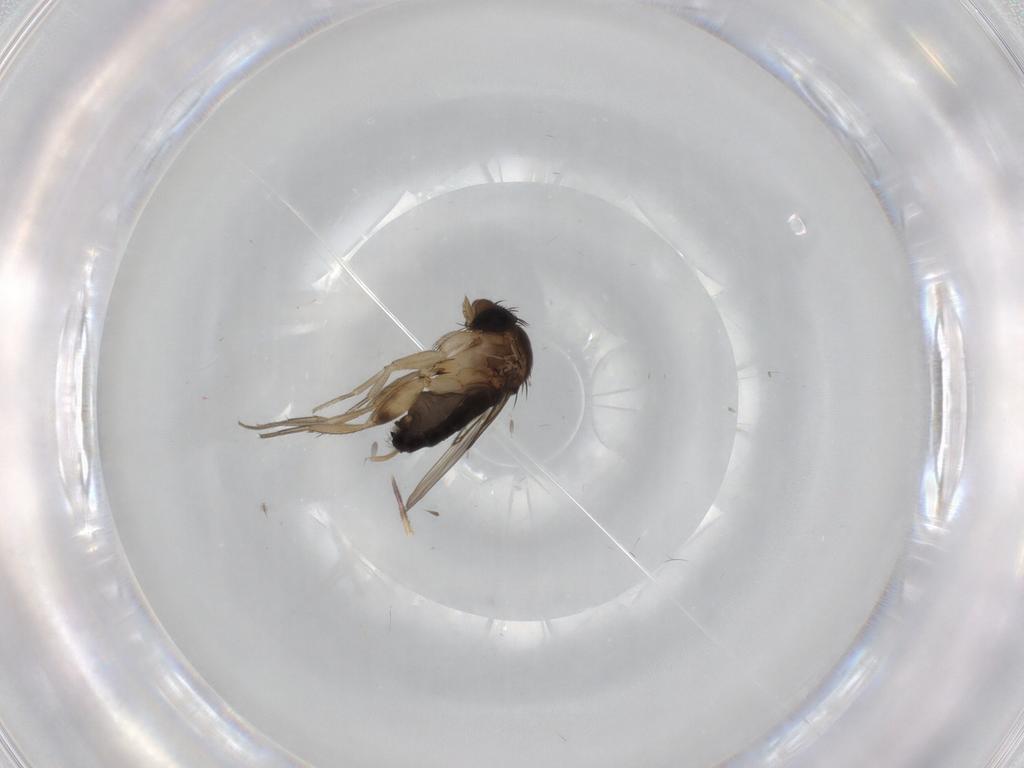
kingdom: Animalia
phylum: Arthropoda
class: Insecta
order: Diptera
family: Phoridae
